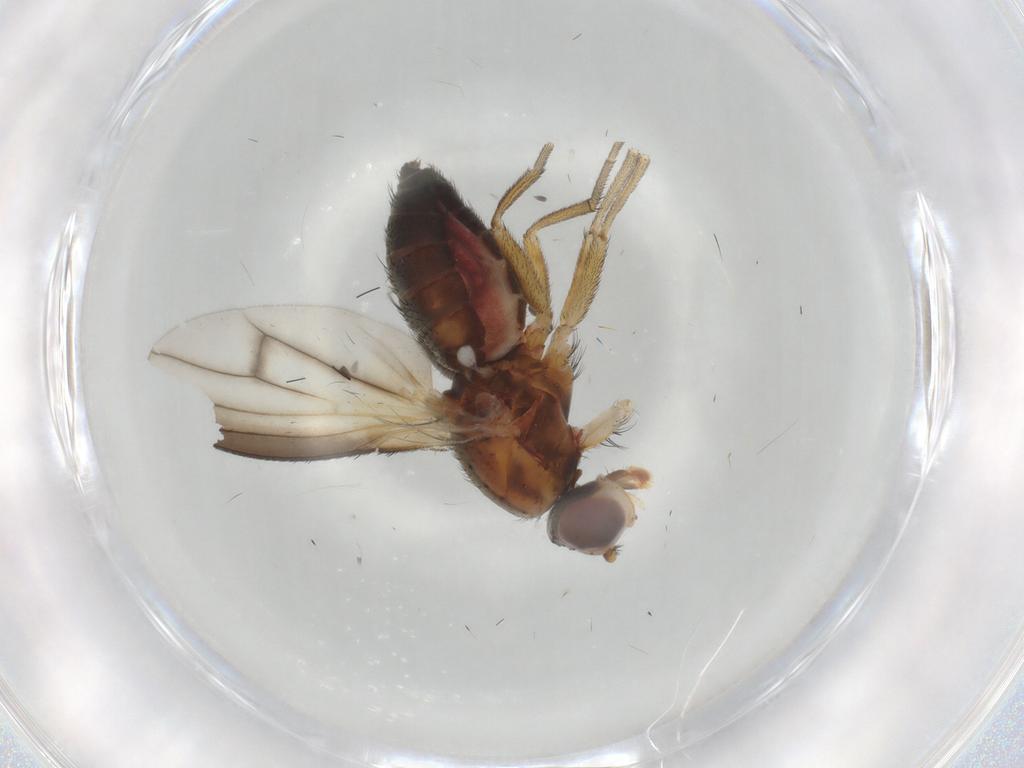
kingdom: Animalia
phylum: Arthropoda
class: Insecta
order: Diptera
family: Heleomyzidae
